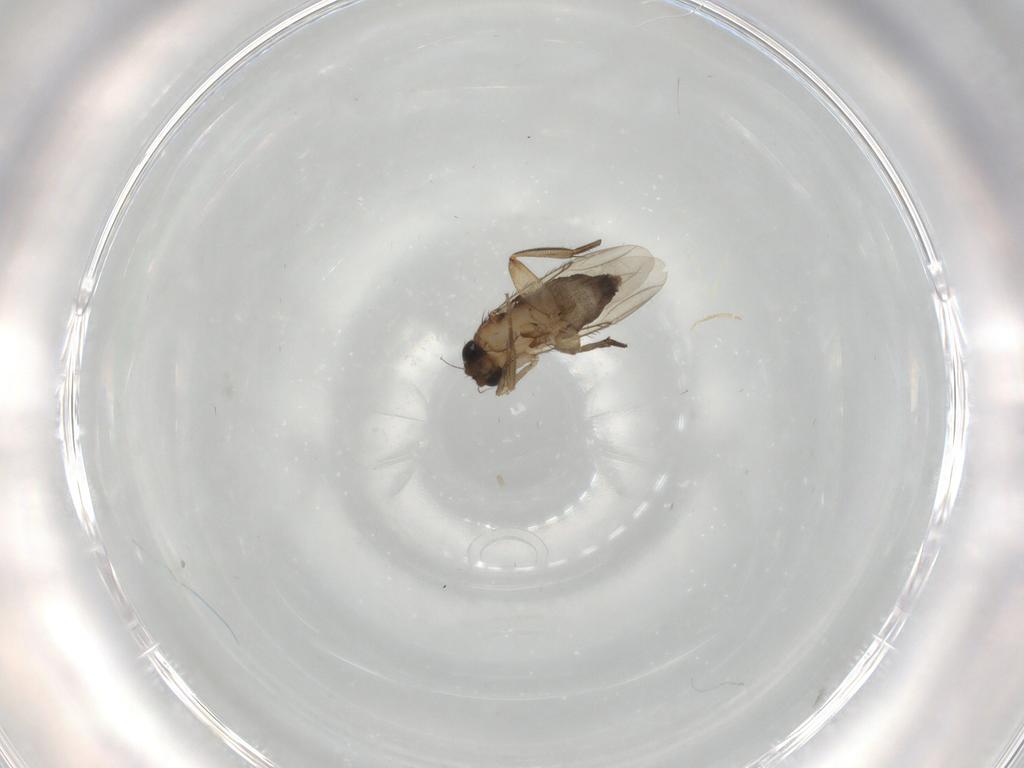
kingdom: Animalia
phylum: Arthropoda
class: Insecta
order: Diptera
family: Phoridae
